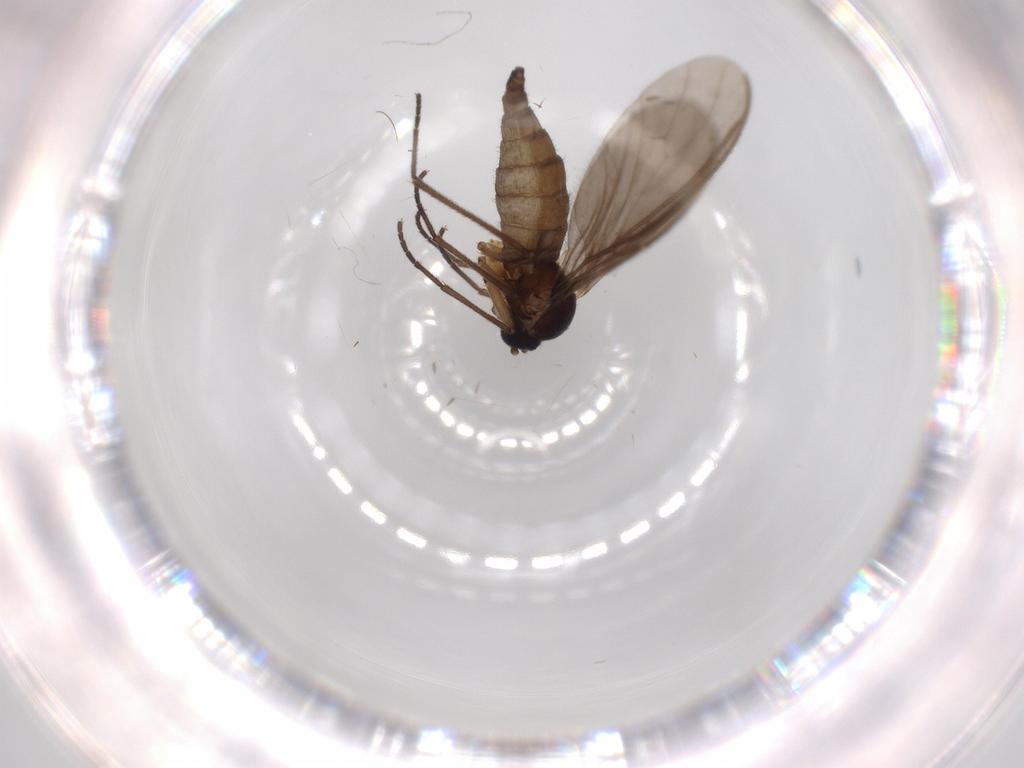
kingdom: Animalia
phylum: Arthropoda
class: Insecta
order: Diptera
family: Sciaridae
